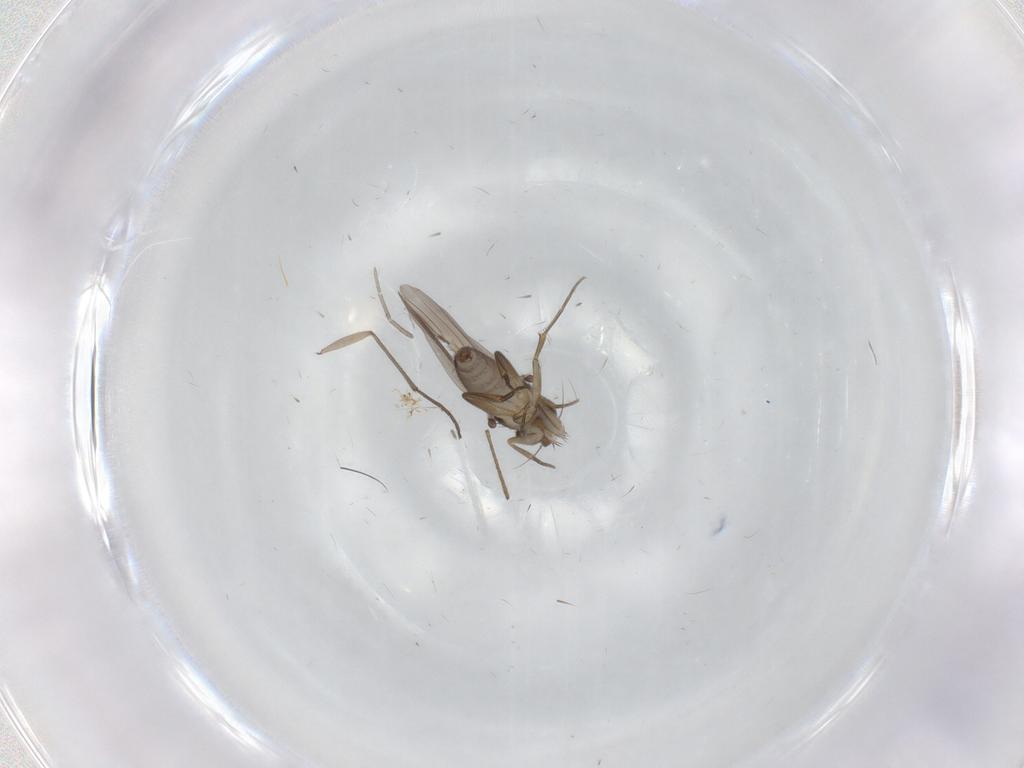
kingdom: Animalia
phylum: Arthropoda
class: Insecta
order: Diptera
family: Phoridae
